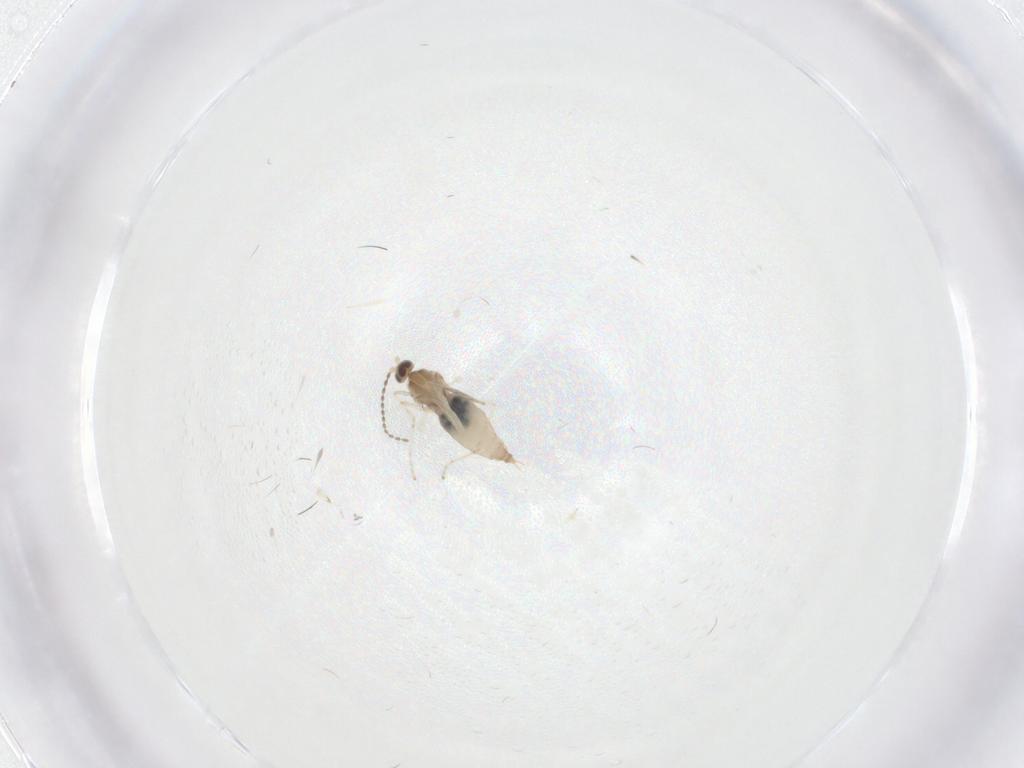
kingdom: Animalia
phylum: Arthropoda
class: Insecta
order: Diptera
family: Cecidomyiidae
